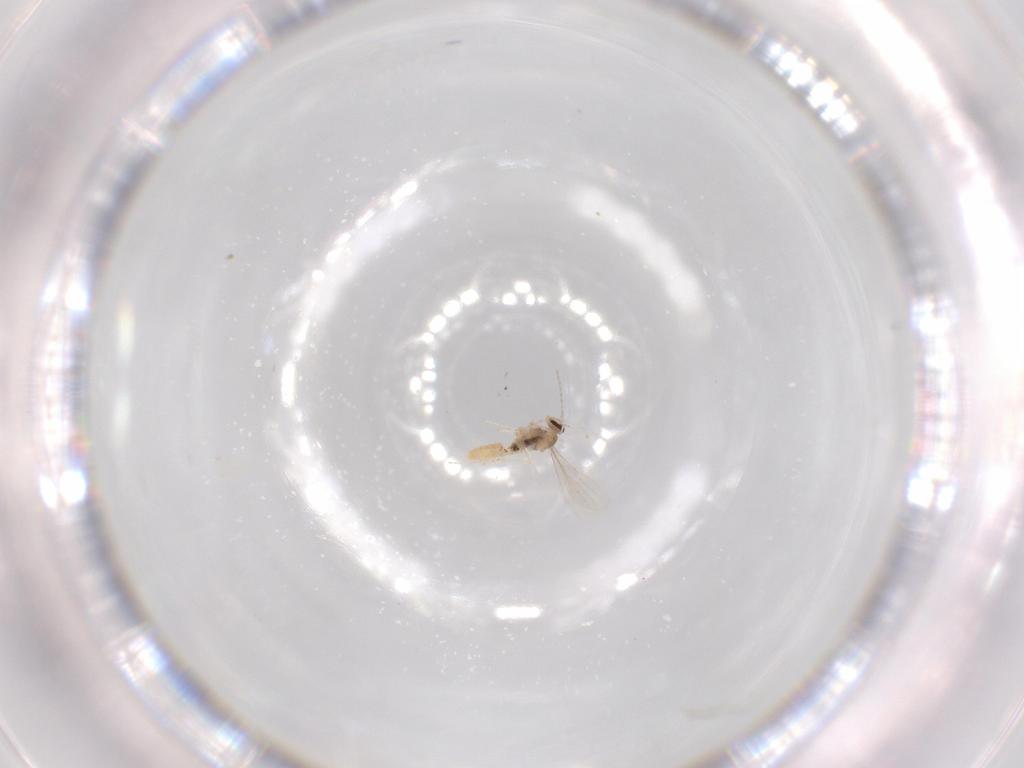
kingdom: Animalia
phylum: Arthropoda
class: Insecta
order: Diptera
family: Cecidomyiidae
